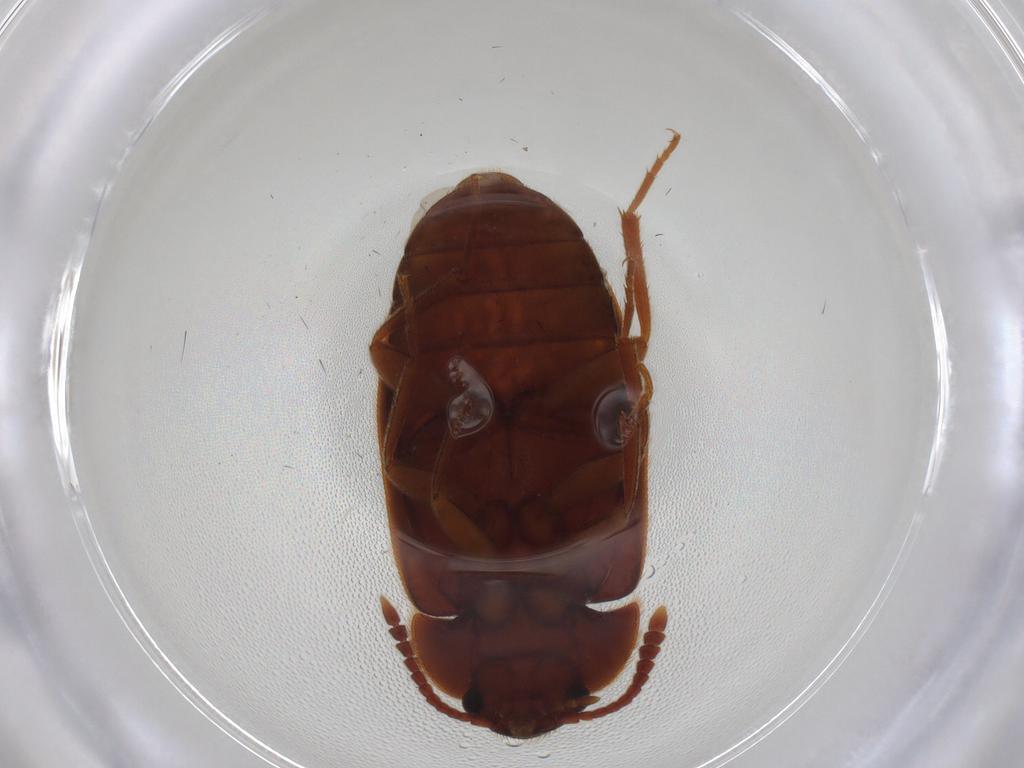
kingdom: Animalia
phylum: Arthropoda
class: Insecta
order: Coleoptera
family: Mycetophagidae
